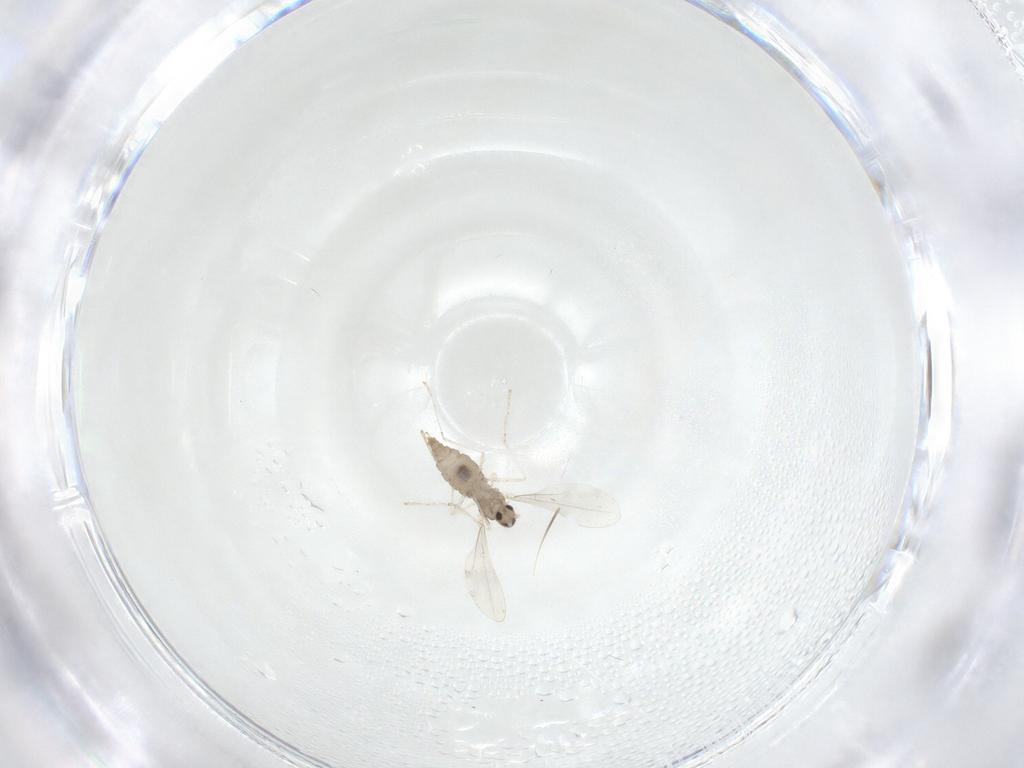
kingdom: Animalia
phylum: Arthropoda
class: Insecta
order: Diptera
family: Cecidomyiidae
